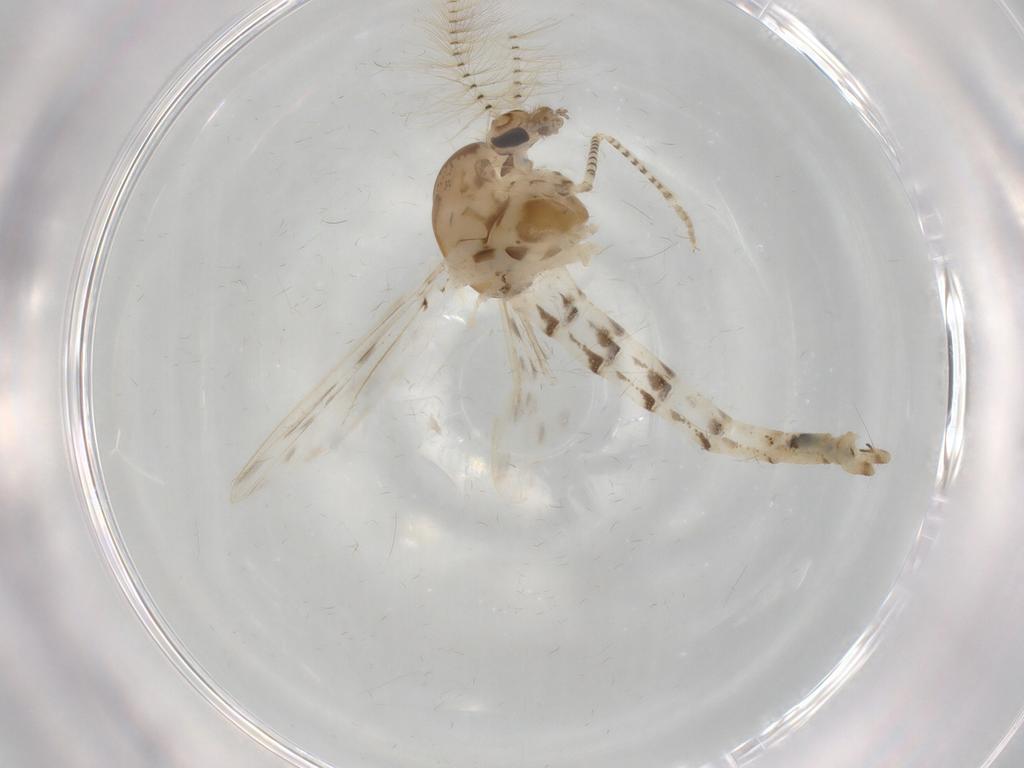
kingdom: Animalia
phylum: Arthropoda
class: Insecta
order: Diptera
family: Chaoboridae
